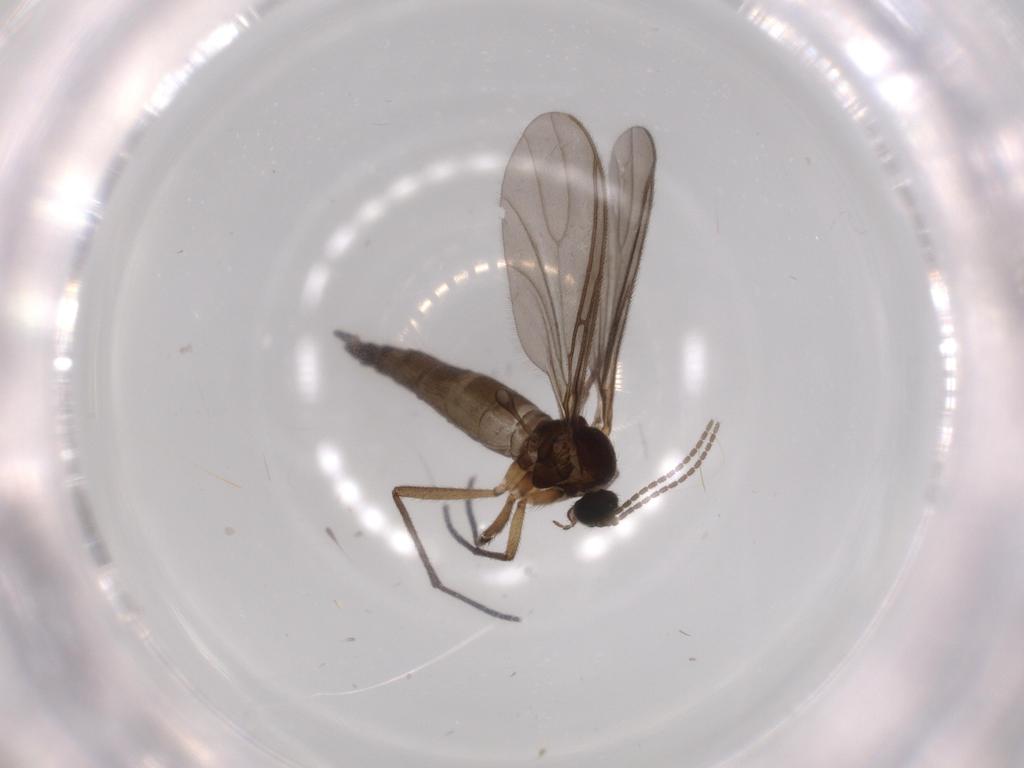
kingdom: Animalia
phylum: Arthropoda
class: Insecta
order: Diptera
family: Sciaridae
